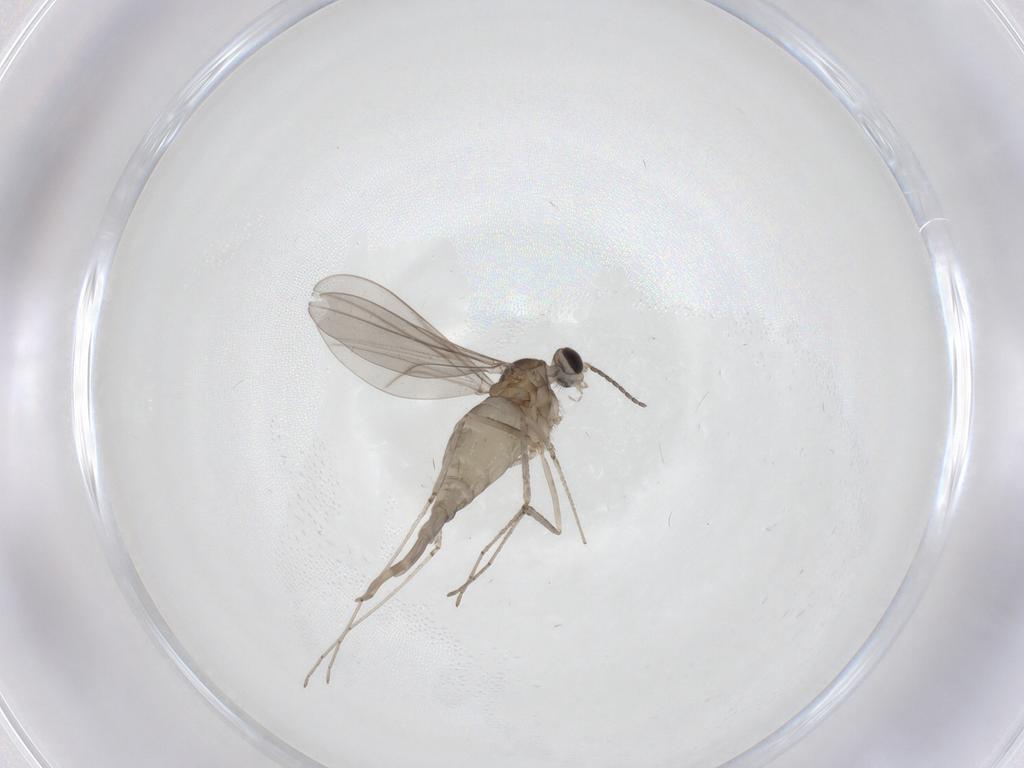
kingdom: Animalia
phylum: Arthropoda
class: Insecta
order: Diptera
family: Cecidomyiidae
